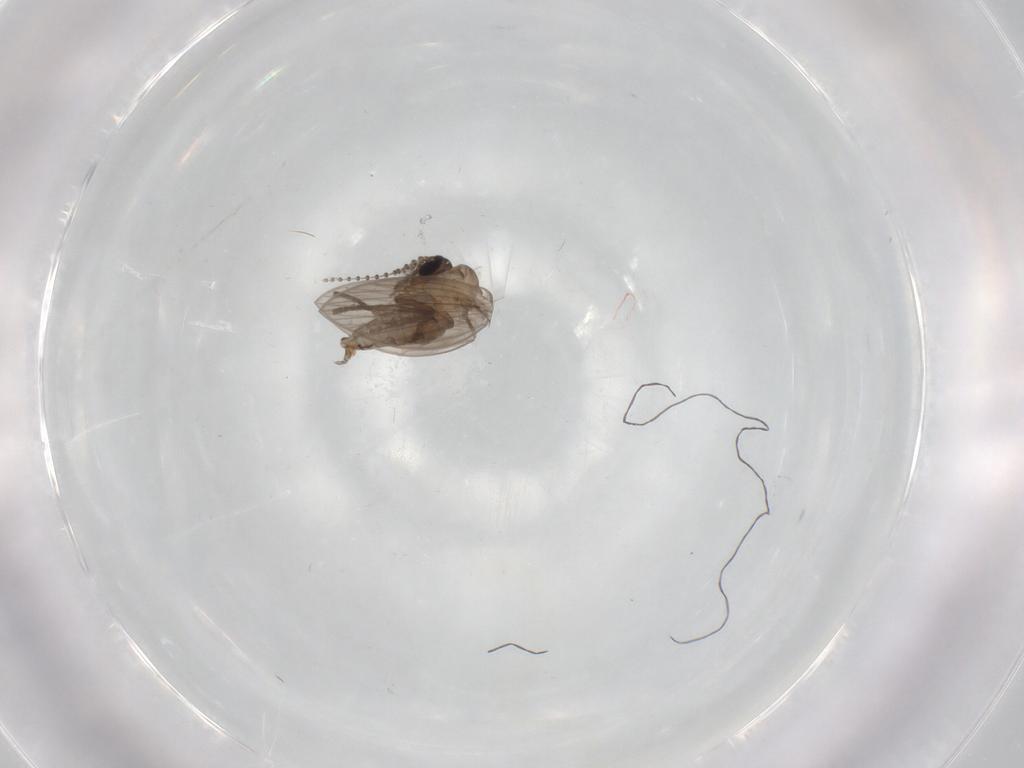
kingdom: Animalia
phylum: Arthropoda
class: Insecta
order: Diptera
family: Psychodidae
